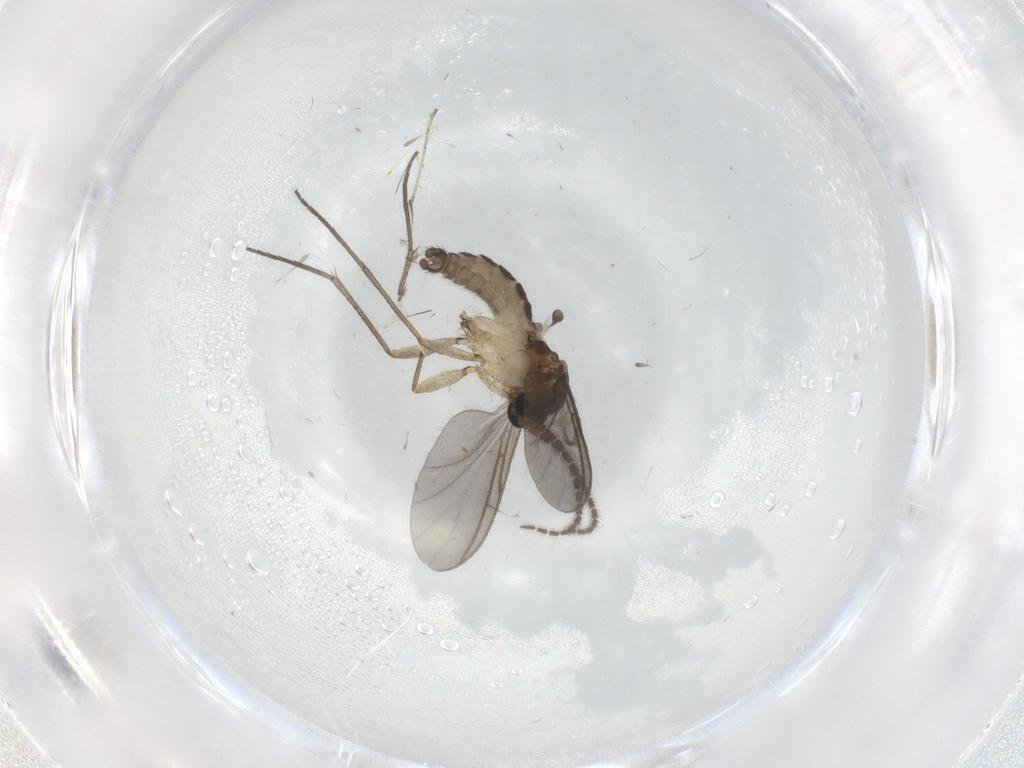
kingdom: Animalia
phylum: Arthropoda
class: Insecta
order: Diptera
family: Sciaridae
